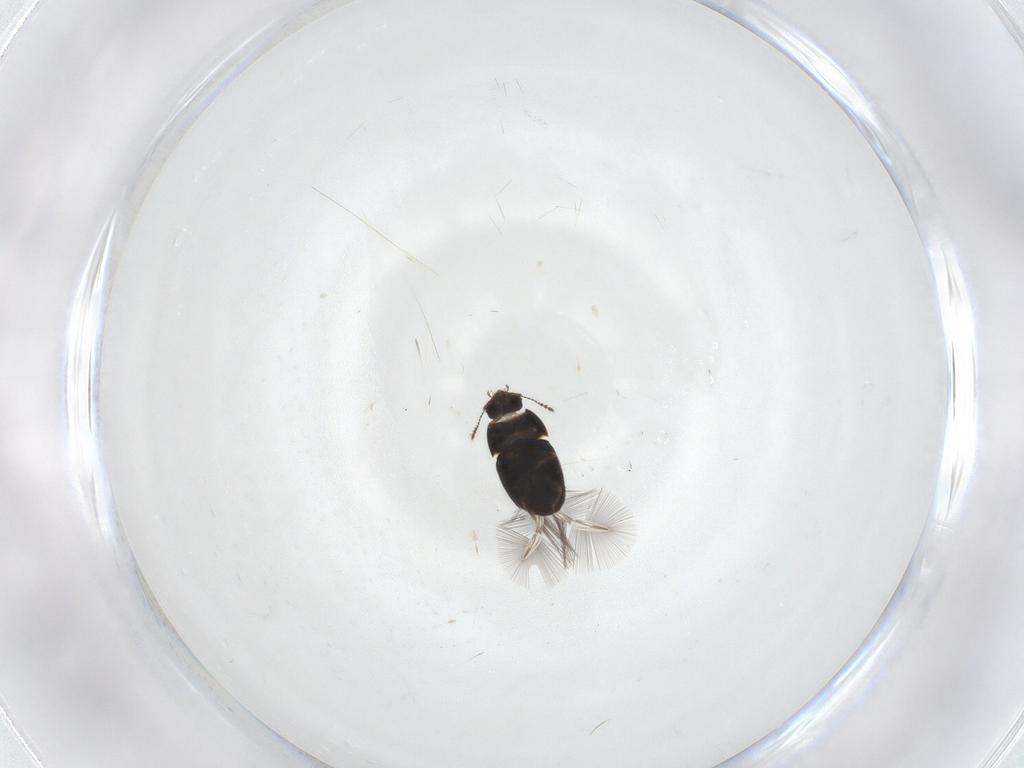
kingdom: Animalia
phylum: Arthropoda
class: Insecta
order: Coleoptera
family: Ptiliidae
